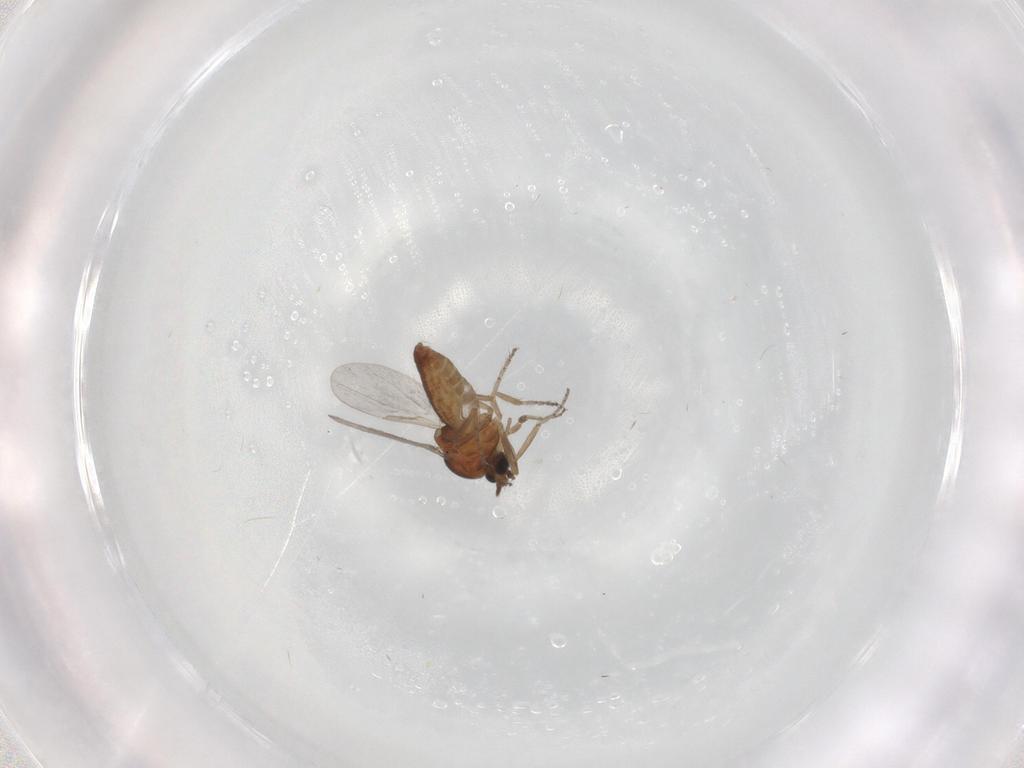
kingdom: Animalia
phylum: Arthropoda
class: Insecta
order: Diptera
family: Ceratopogonidae
